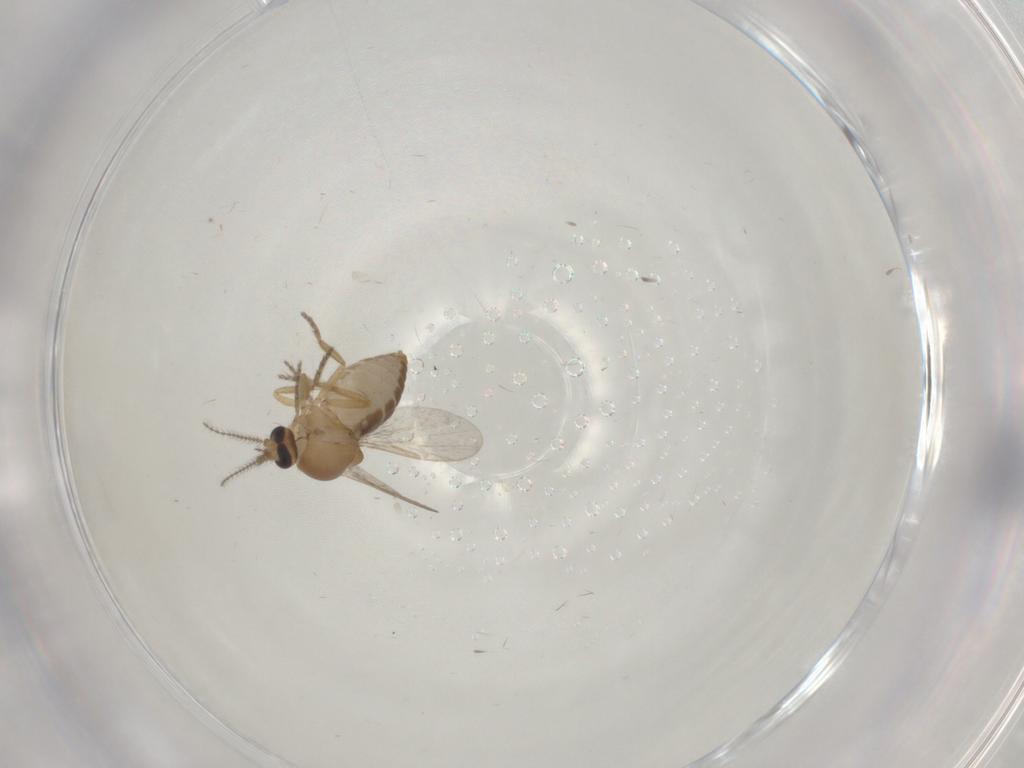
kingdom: Animalia
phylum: Arthropoda
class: Insecta
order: Diptera
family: Ceratopogonidae
